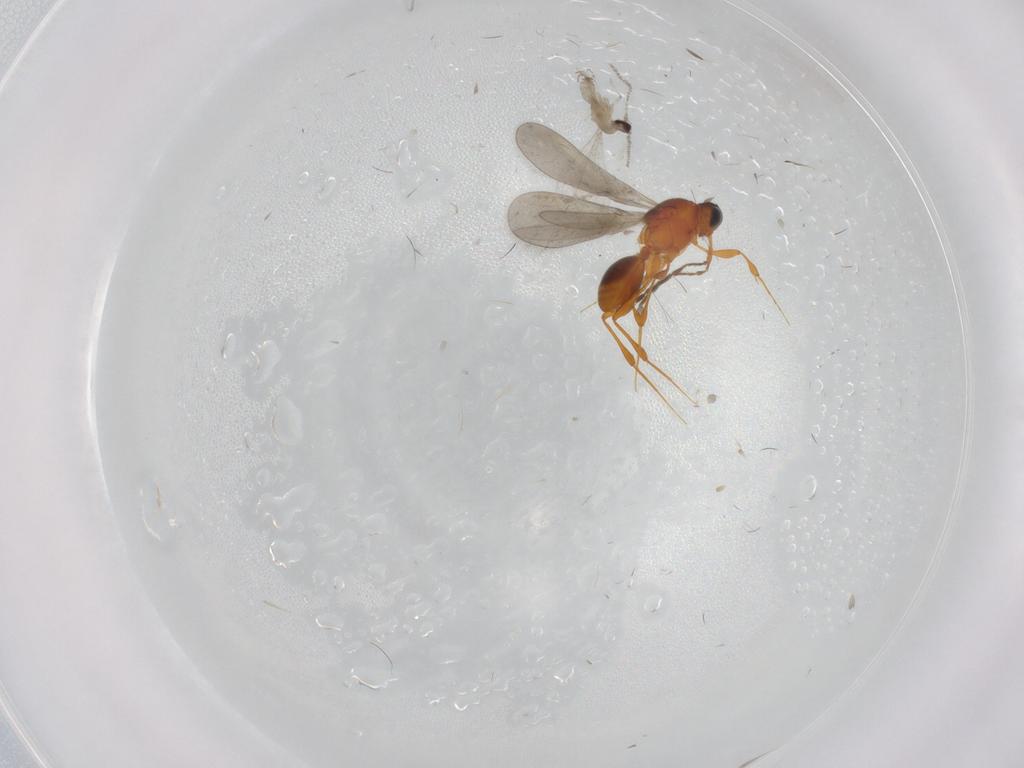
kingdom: Animalia
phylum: Arthropoda
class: Insecta
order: Diptera
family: Cecidomyiidae
